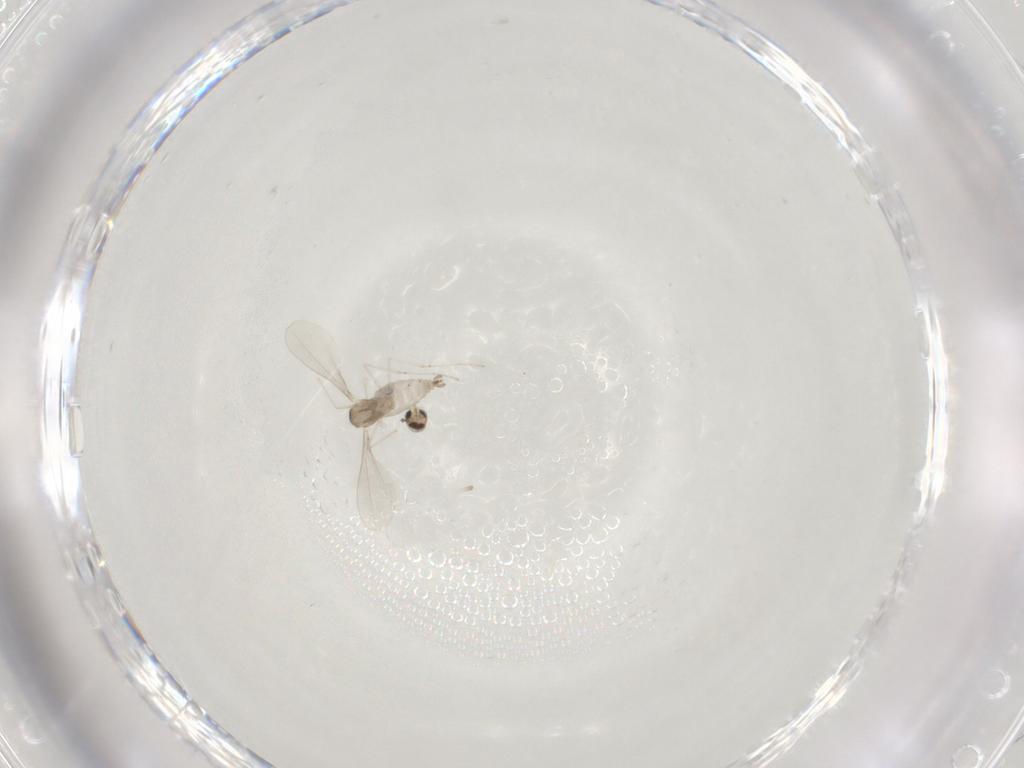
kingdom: Animalia
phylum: Arthropoda
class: Insecta
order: Diptera
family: Cecidomyiidae
